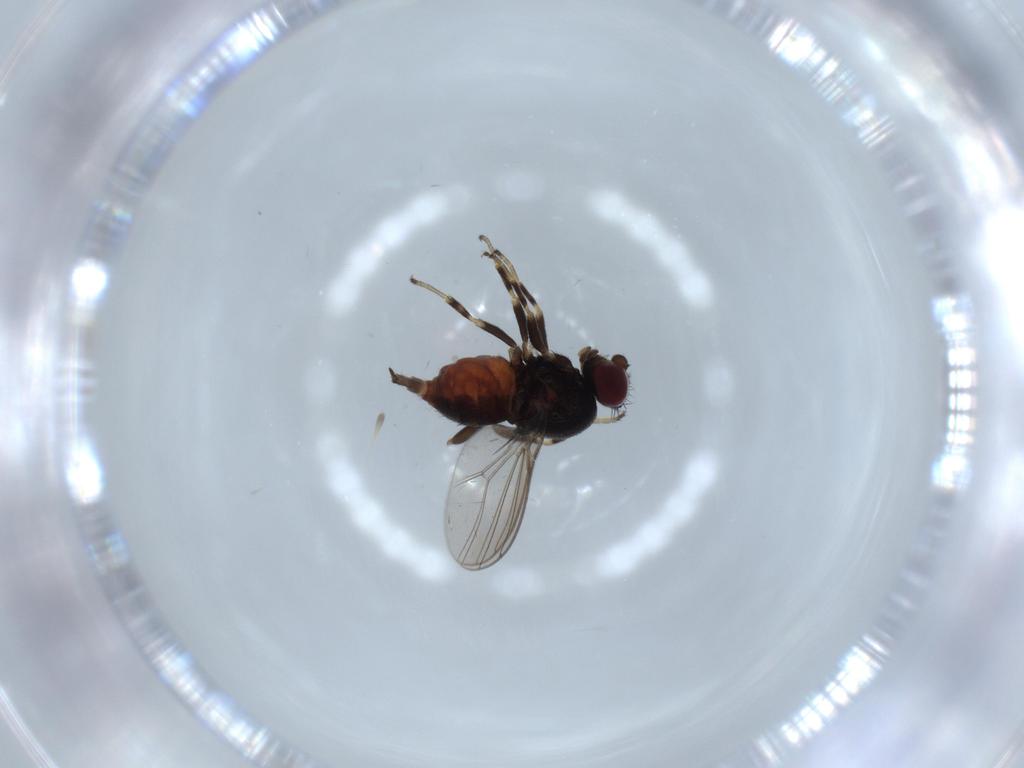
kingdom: Animalia
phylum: Arthropoda
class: Insecta
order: Diptera
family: Chloropidae
